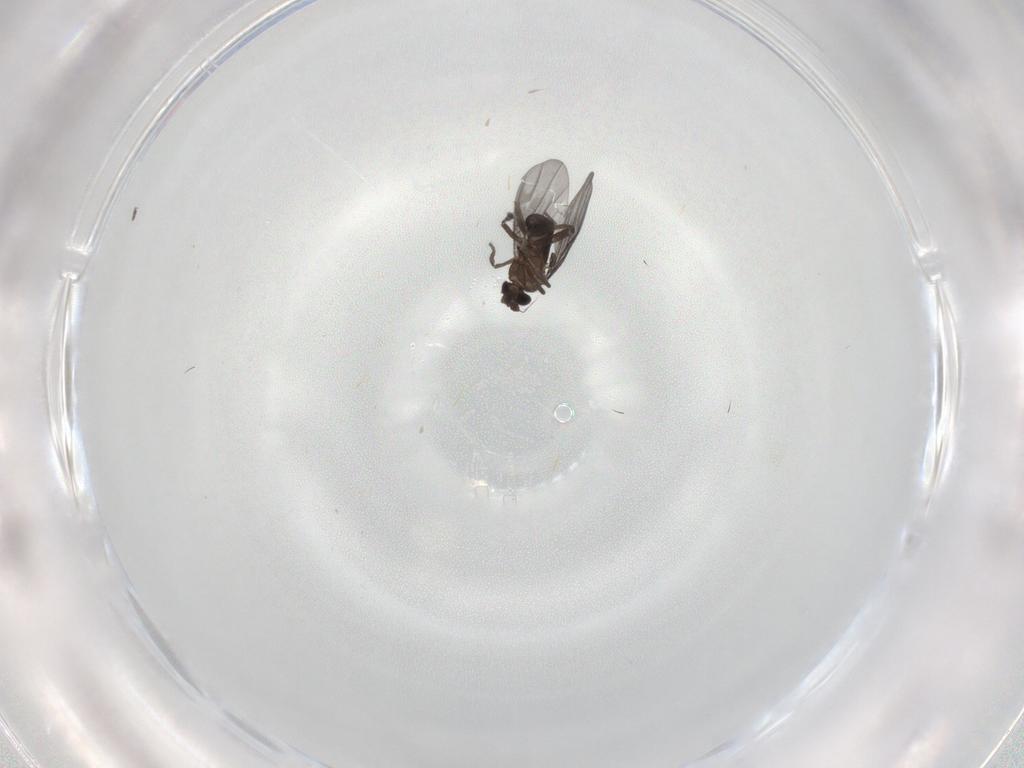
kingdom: Animalia
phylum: Arthropoda
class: Insecta
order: Diptera
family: Phoridae
